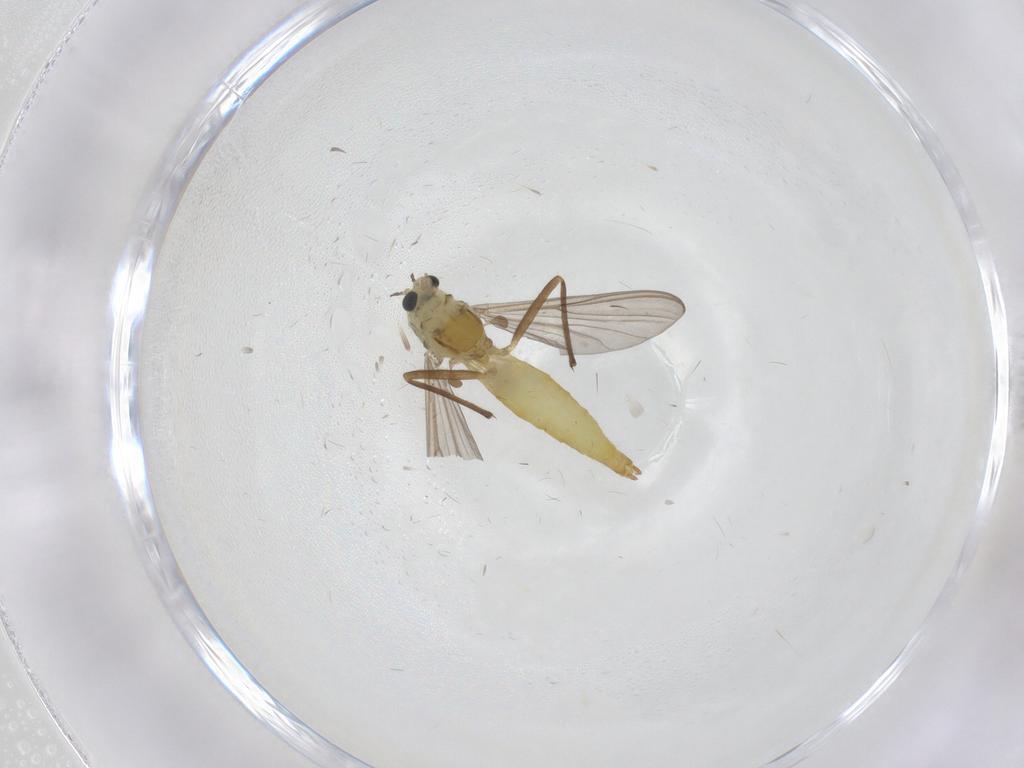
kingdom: Animalia
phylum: Arthropoda
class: Insecta
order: Diptera
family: Chironomidae
